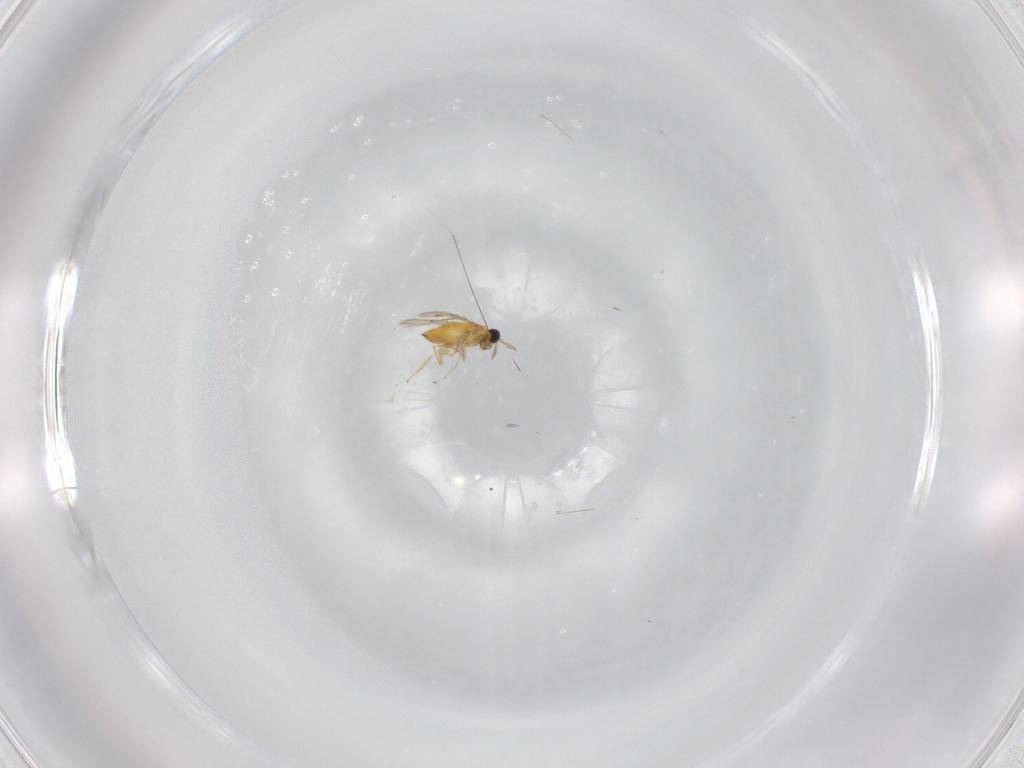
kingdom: Animalia
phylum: Arthropoda
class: Insecta
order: Hymenoptera
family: Trichogrammatidae
